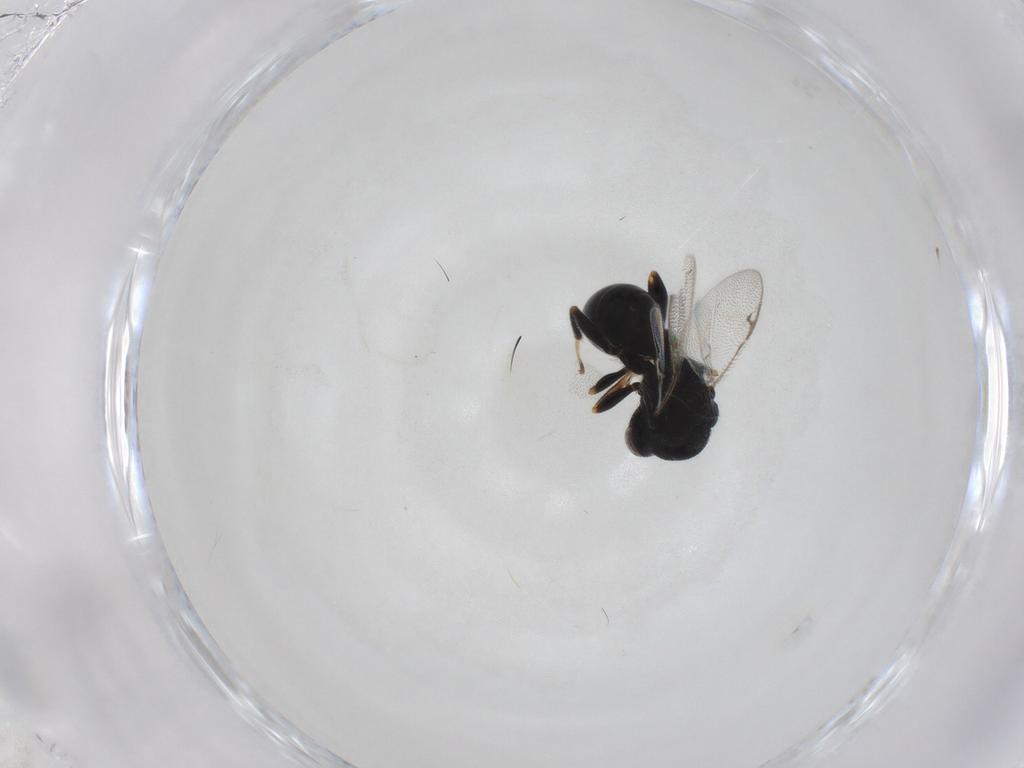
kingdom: Animalia
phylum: Arthropoda
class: Insecta
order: Hymenoptera
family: Eurytomidae
